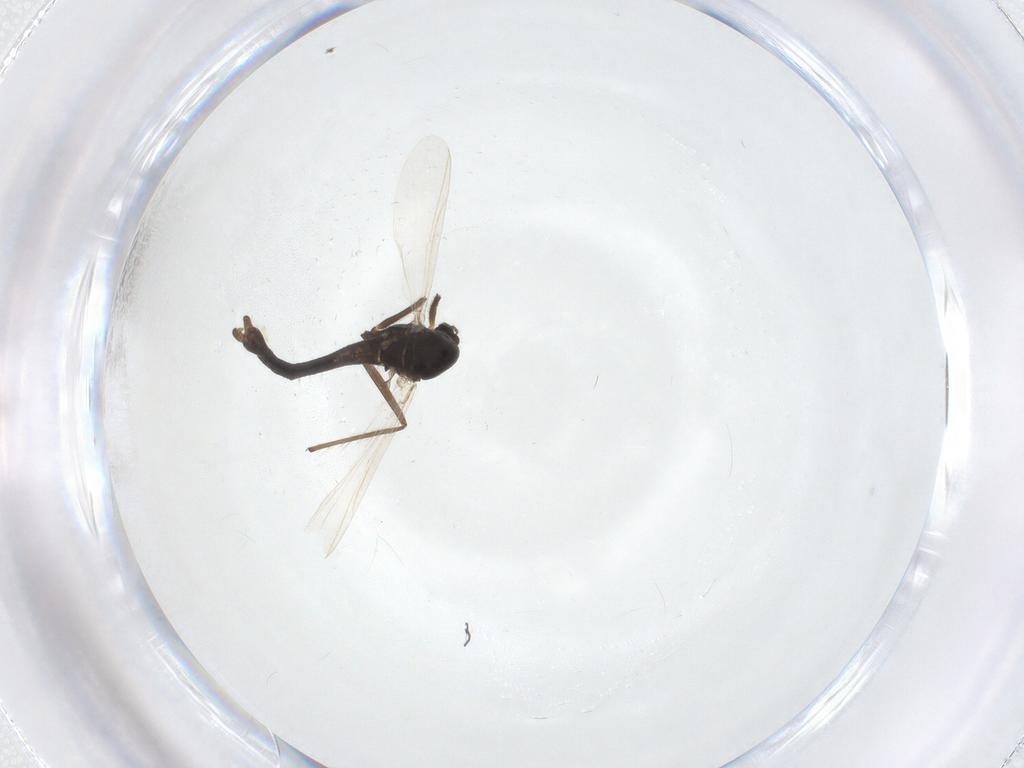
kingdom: Animalia
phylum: Arthropoda
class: Insecta
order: Diptera
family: Chironomidae
